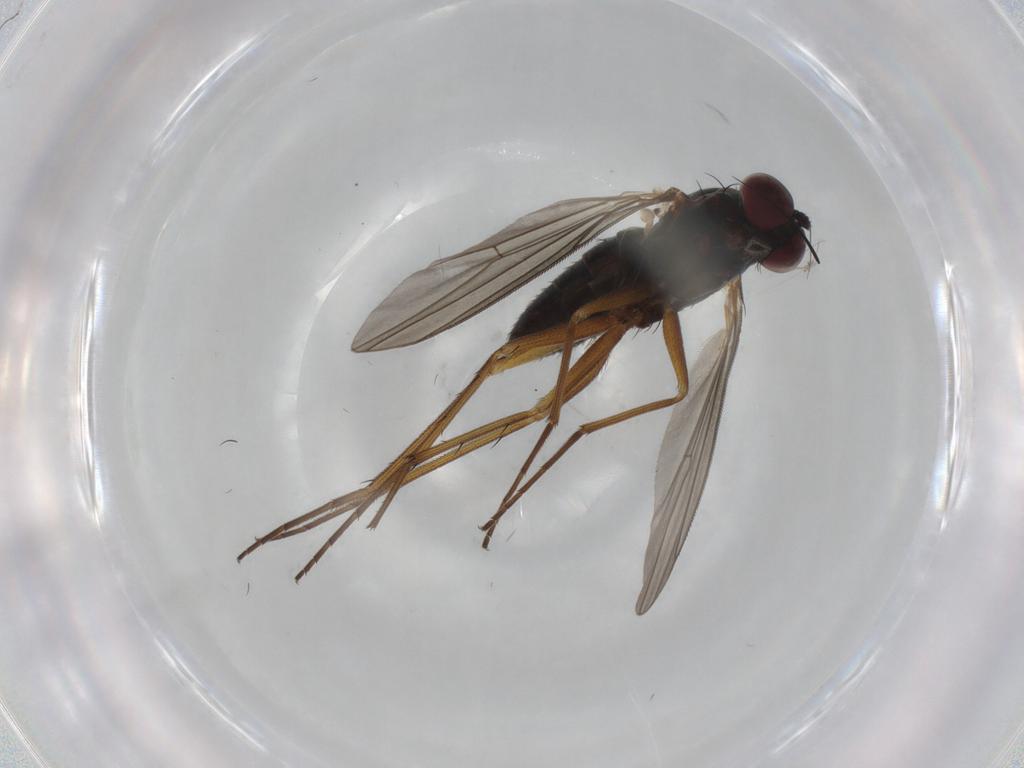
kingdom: Animalia
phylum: Arthropoda
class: Insecta
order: Diptera
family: Dolichopodidae
